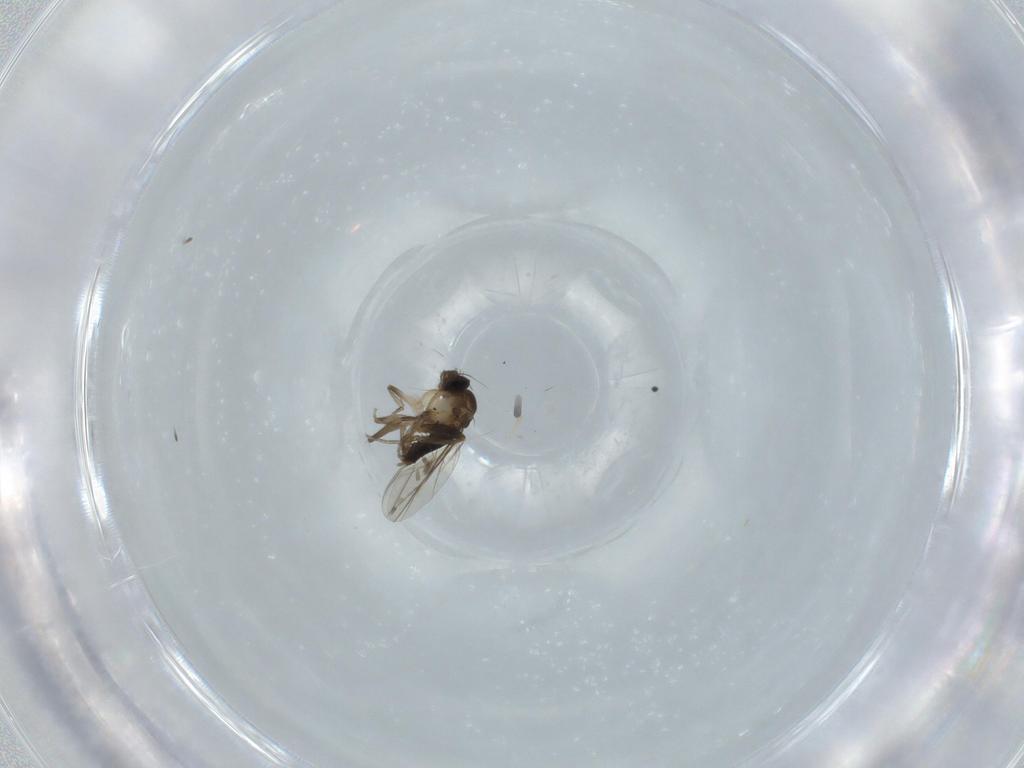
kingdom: Animalia
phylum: Arthropoda
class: Insecta
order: Diptera
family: Phoridae
